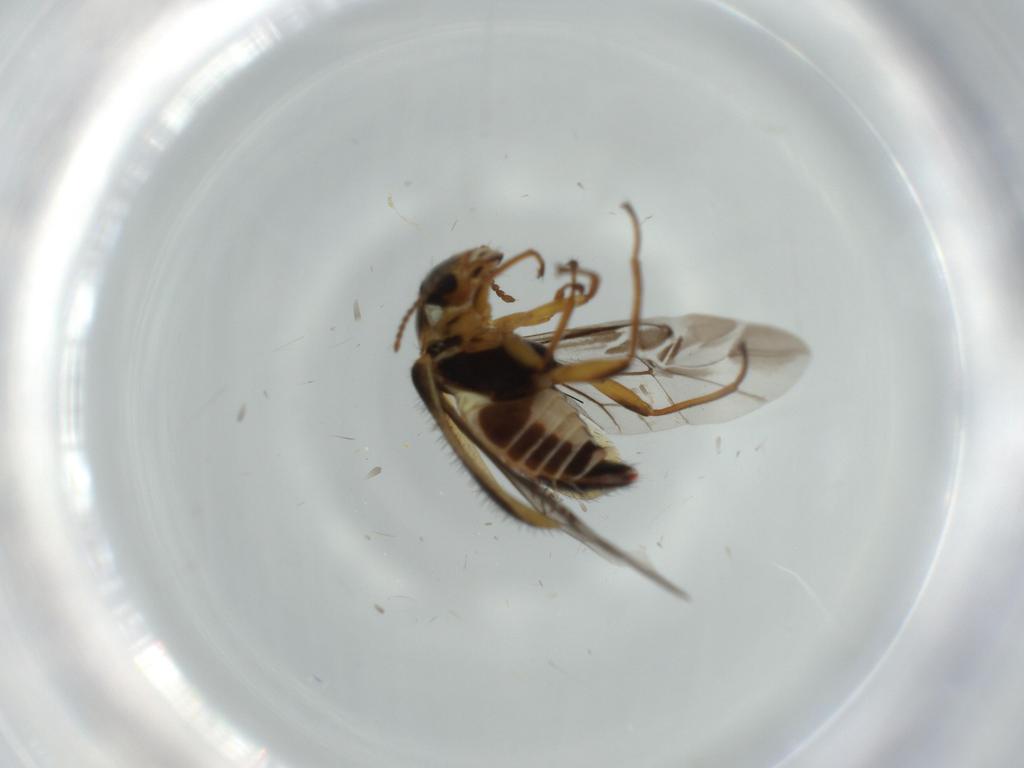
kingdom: Animalia
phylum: Arthropoda
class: Insecta
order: Coleoptera
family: Melyridae
